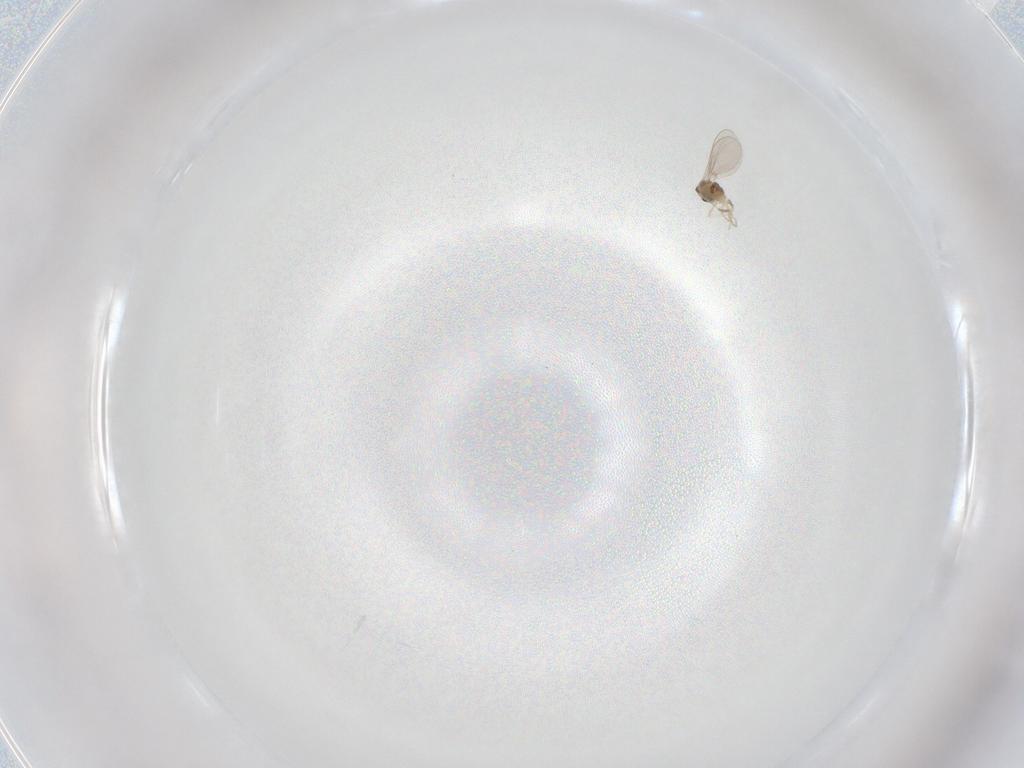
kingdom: Animalia
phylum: Arthropoda
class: Insecta
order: Diptera
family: Cecidomyiidae
